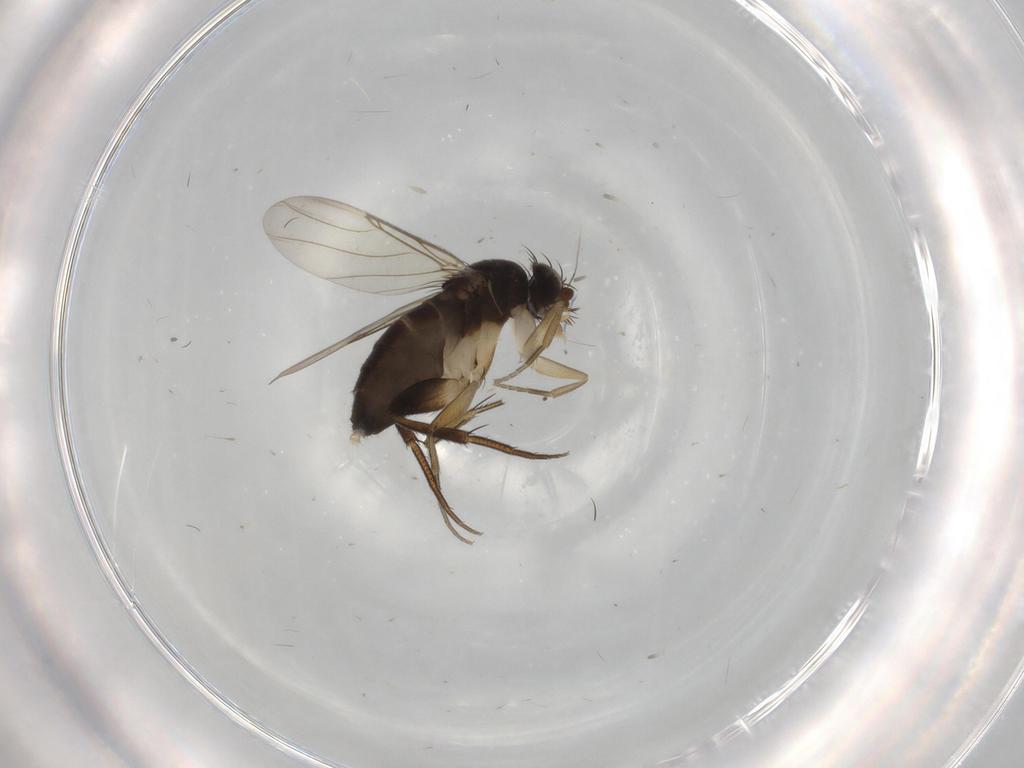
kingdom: Animalia
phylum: Arthropoda
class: Insecta
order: Diptera
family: Phoridae
